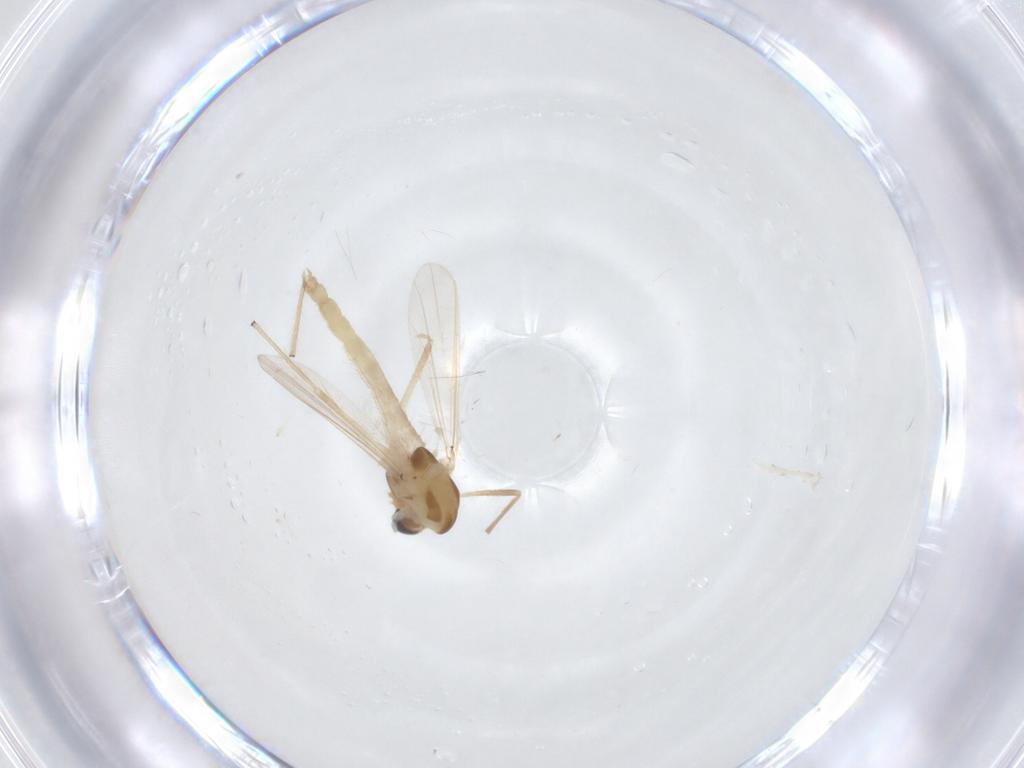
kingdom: Animalia
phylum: Arthropoda
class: Insecta
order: Diptera
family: Chironomidae
